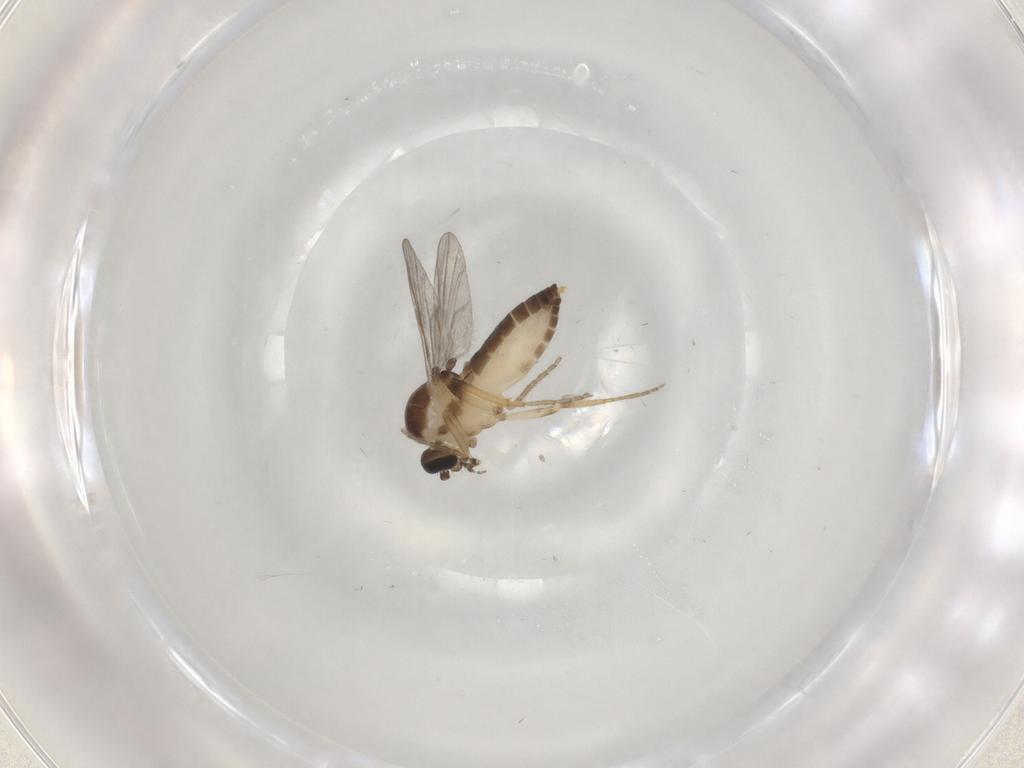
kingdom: Animalia
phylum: Arthropoda
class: Insecta
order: Diptera
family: Ceratopogonidae
